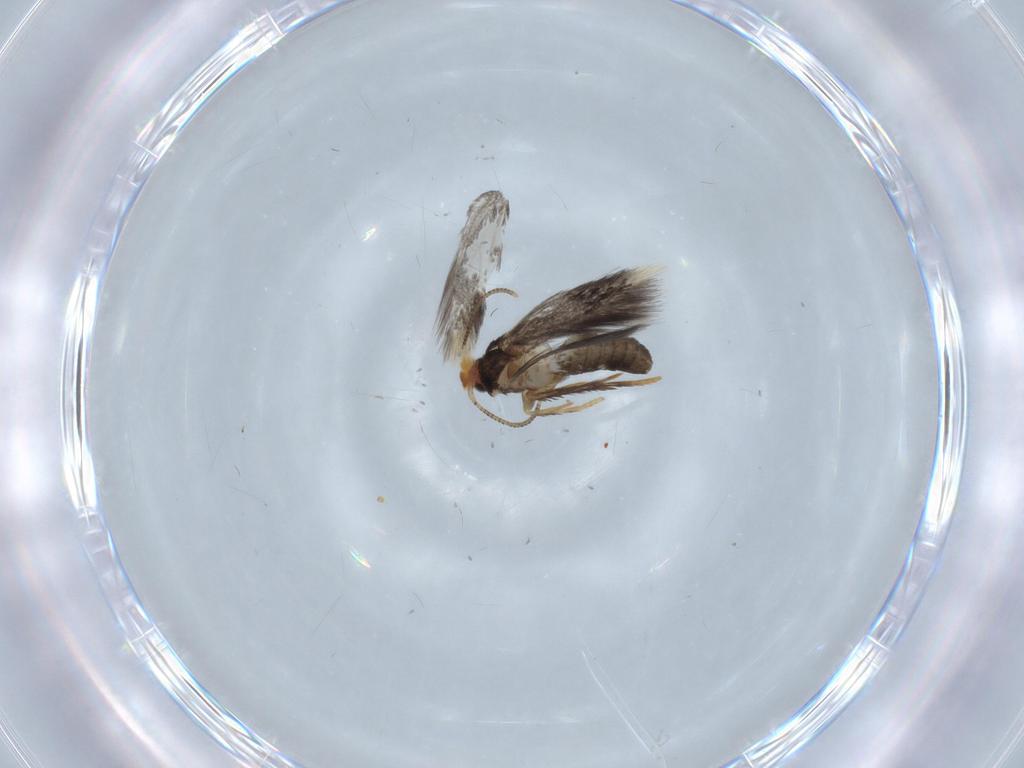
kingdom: Animalia
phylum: Arthropoda
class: Insecta
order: Lepidoptera
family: Nepticulidae
